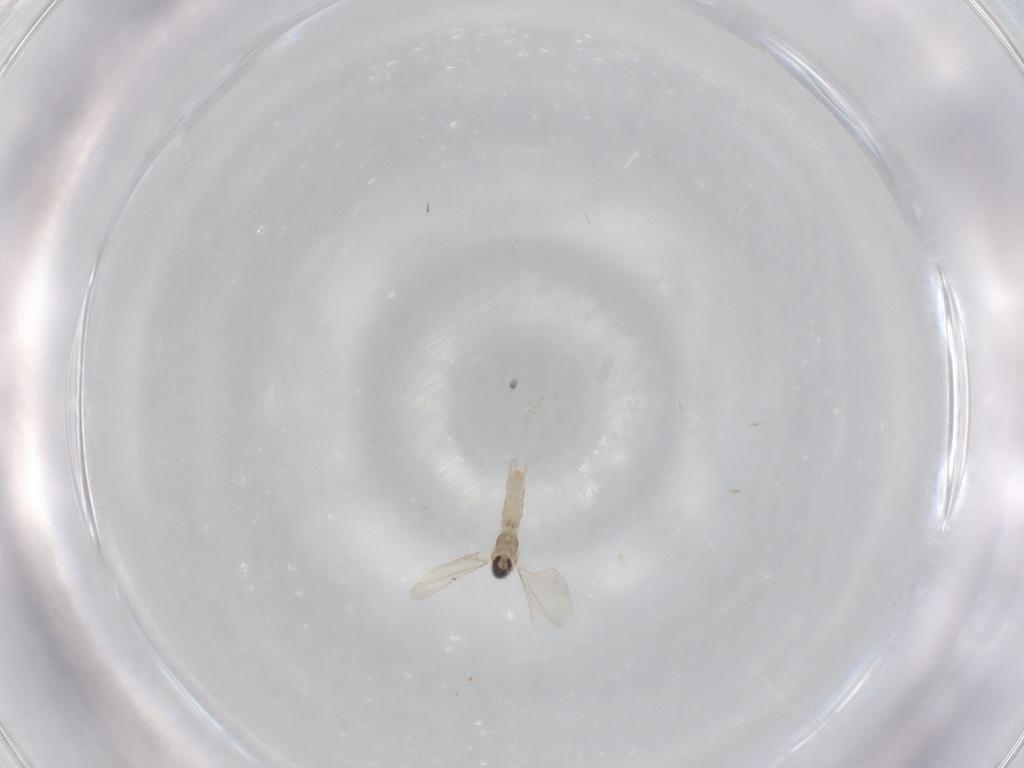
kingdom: Animalia
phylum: Arthropoda
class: Insecta
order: Diptera
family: Cecidomyiidae
